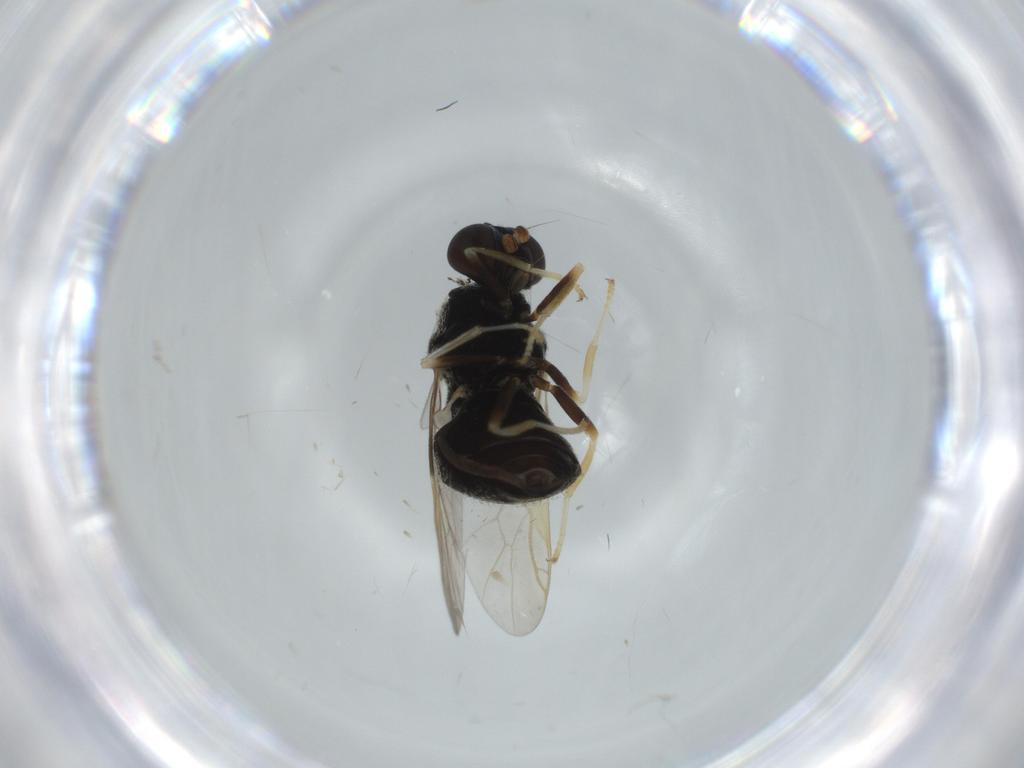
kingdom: Animalia
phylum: Arthropoda
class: Insecta
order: Diptera
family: Stratiomyidae
